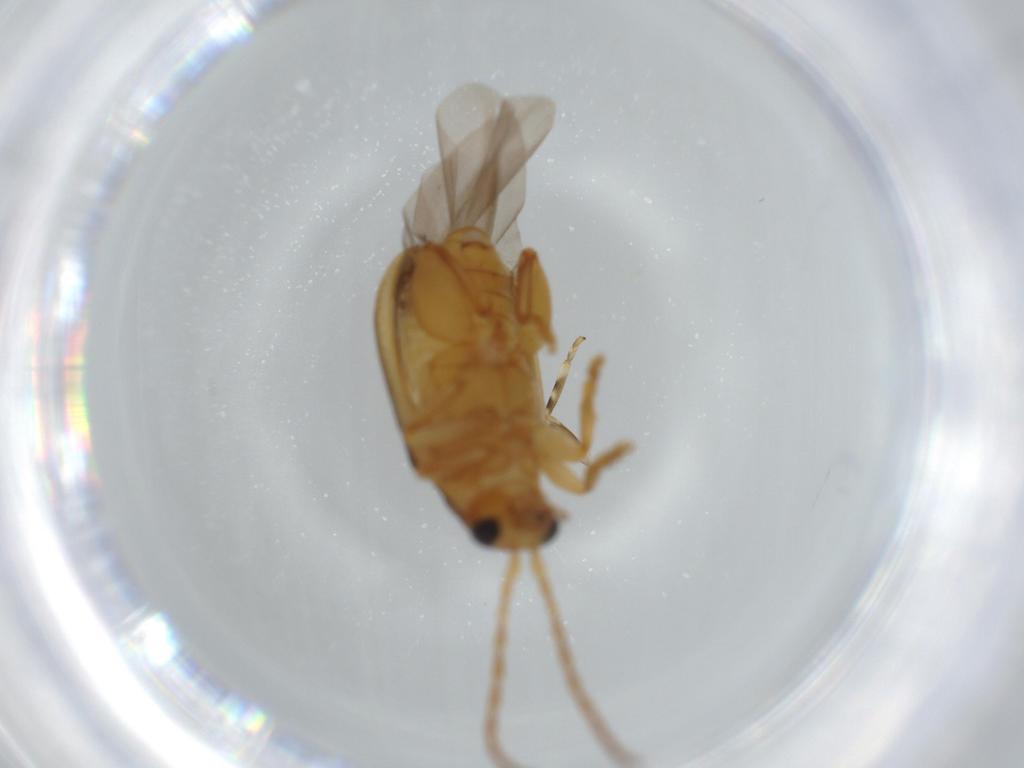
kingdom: Animalia
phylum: Arthropoda
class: Insecta
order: Coleoptera
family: Chrysomelidae
